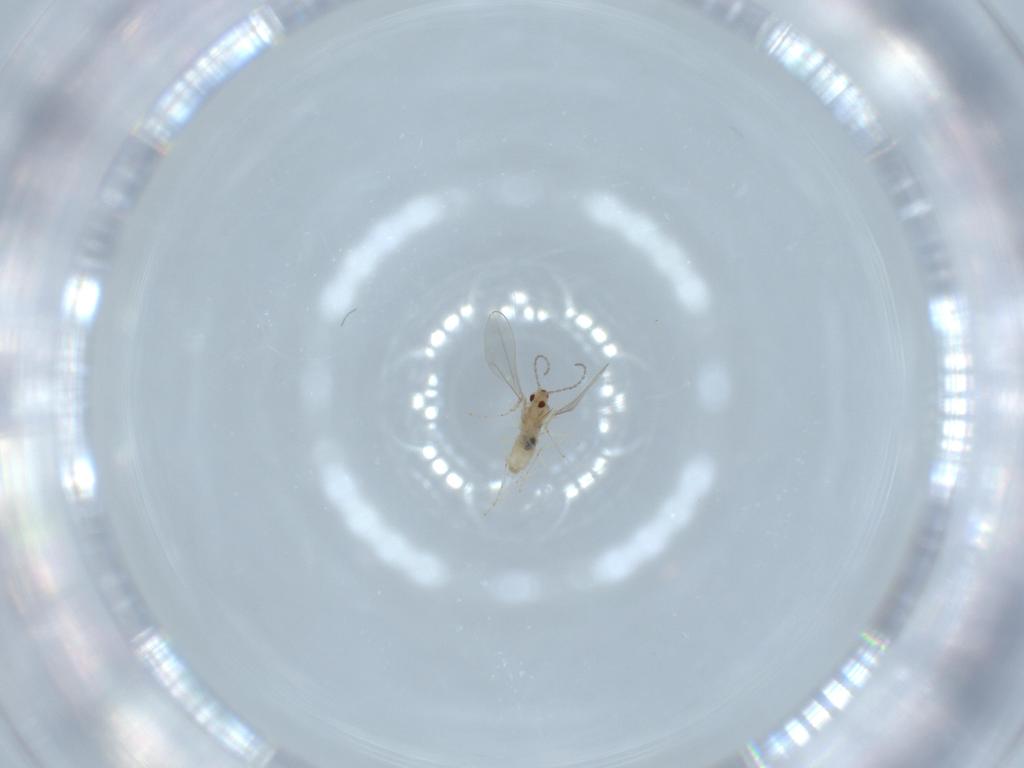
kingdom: Animalia
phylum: Arthropoda
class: Insecta
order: Diptera
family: Cecidomyiidae
